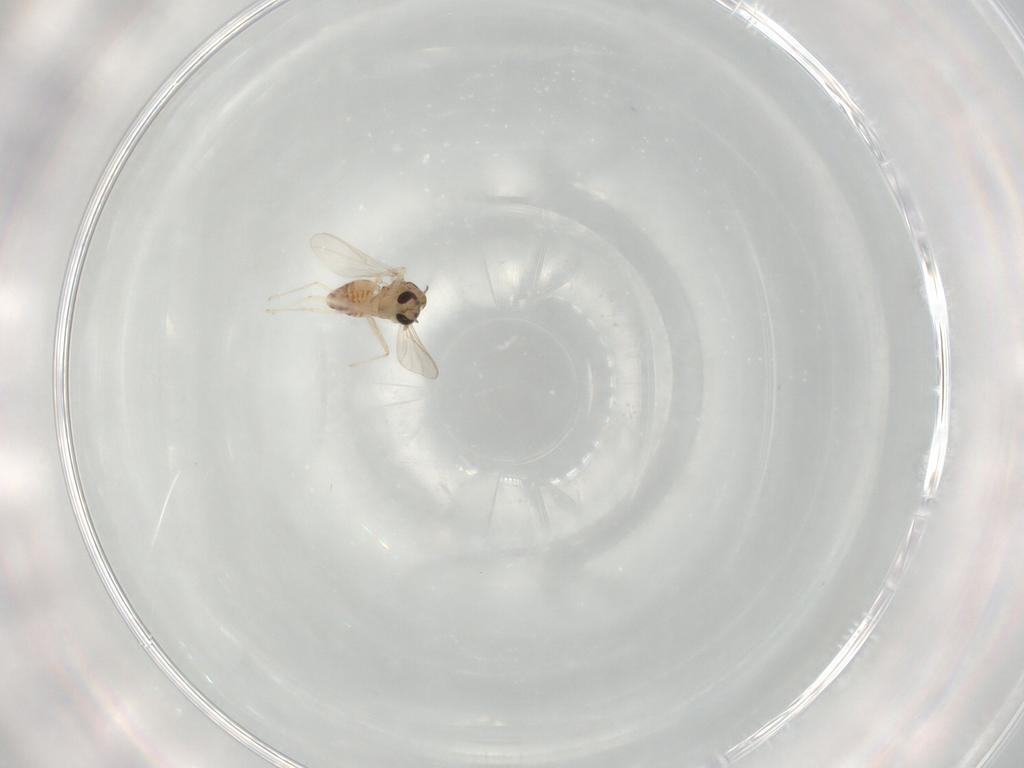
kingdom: Animalia
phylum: Arthropoda
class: Insecta
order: Diptera
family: Chironomidae
